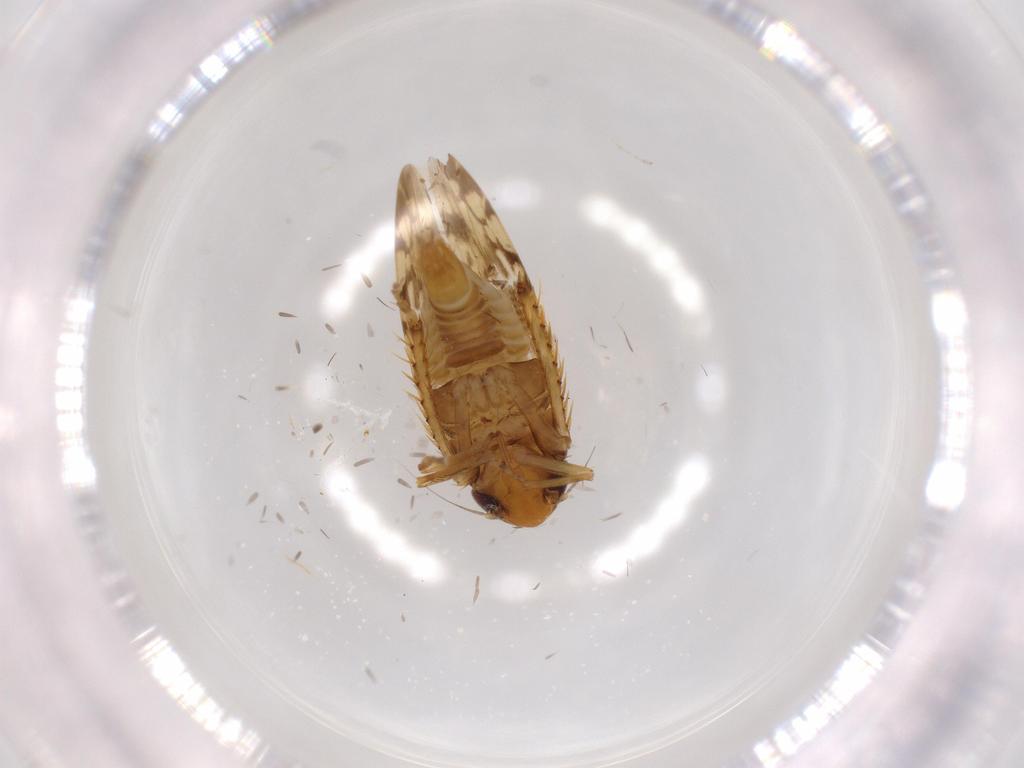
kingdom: Animalia
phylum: Arthropoda
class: Insecta
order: Hemiptera
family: Cicadellidae
